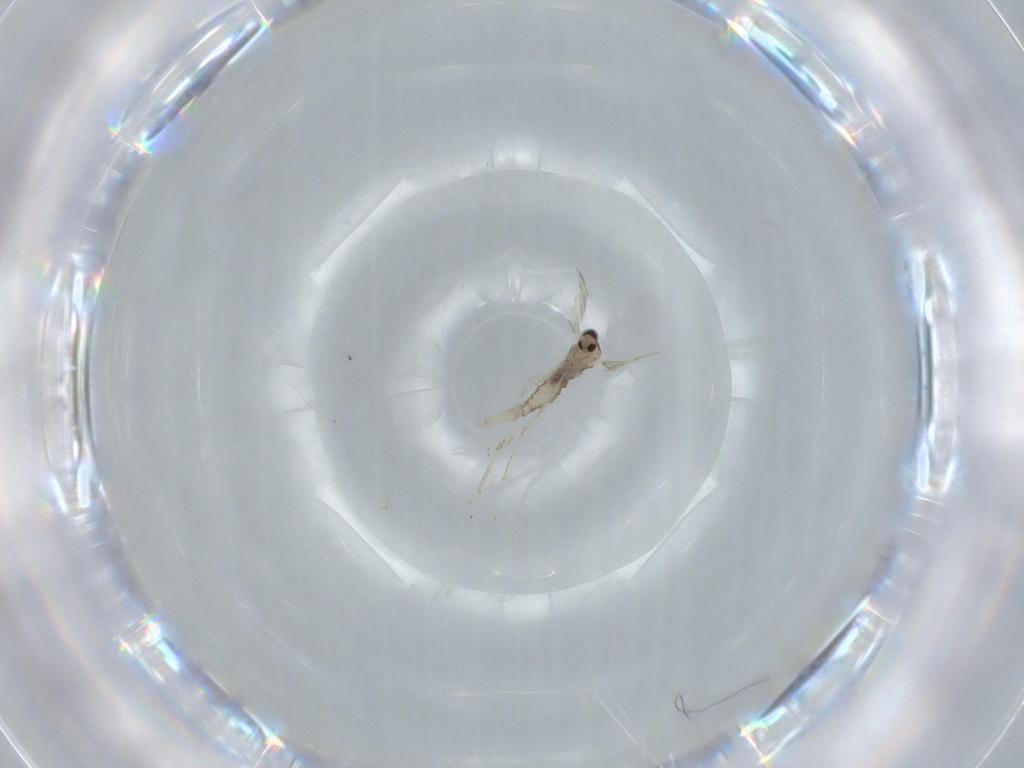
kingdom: Animalia
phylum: Arthropoda
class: Insecta
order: Diptera
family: Cecidomyiidae
